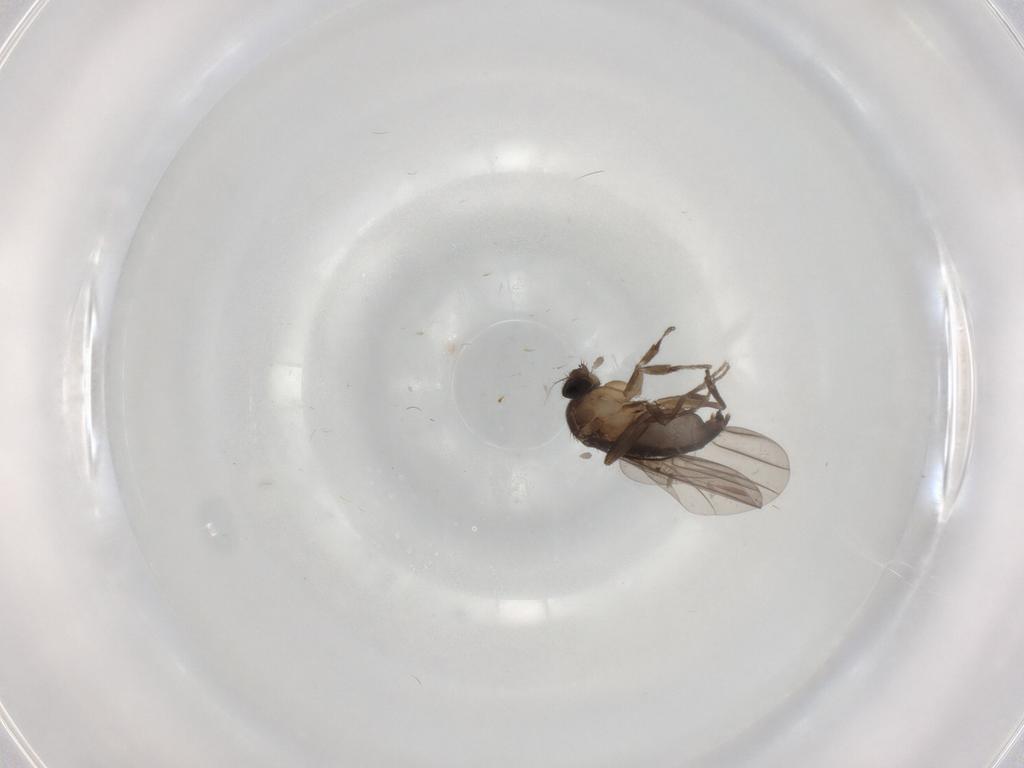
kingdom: Animalia
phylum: Arthropoda
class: Insecta
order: Diptera
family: Phoridae
